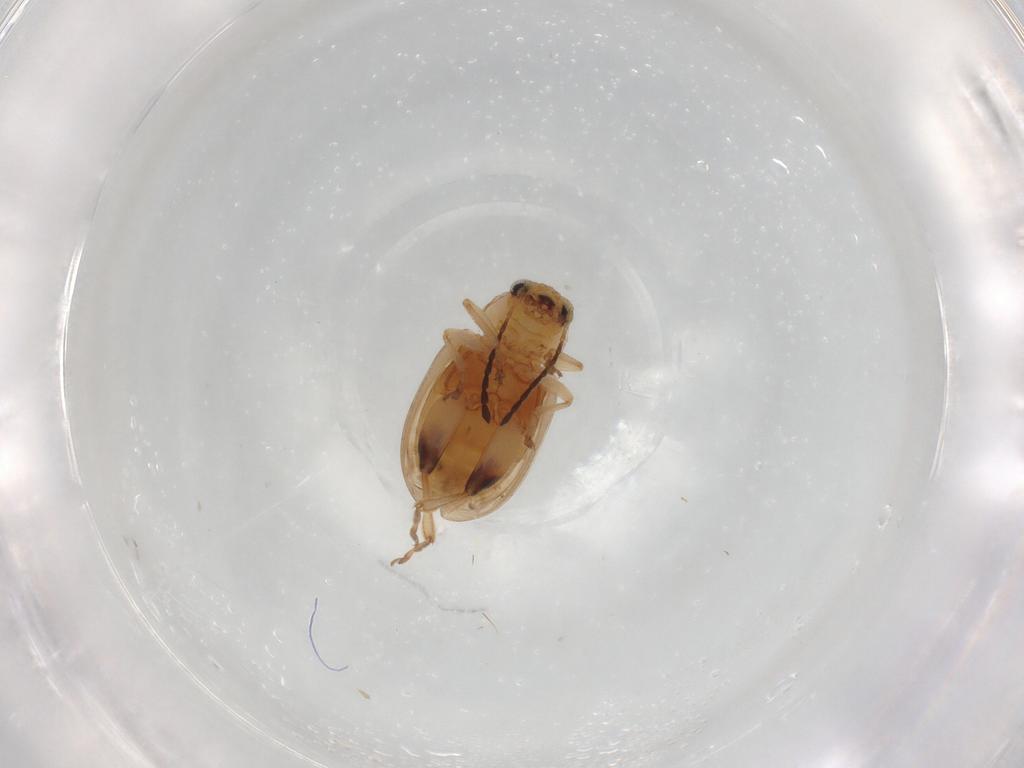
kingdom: Animalia
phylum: Arthropoda
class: Insecta
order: Coleoptera
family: Chrysomelidae
